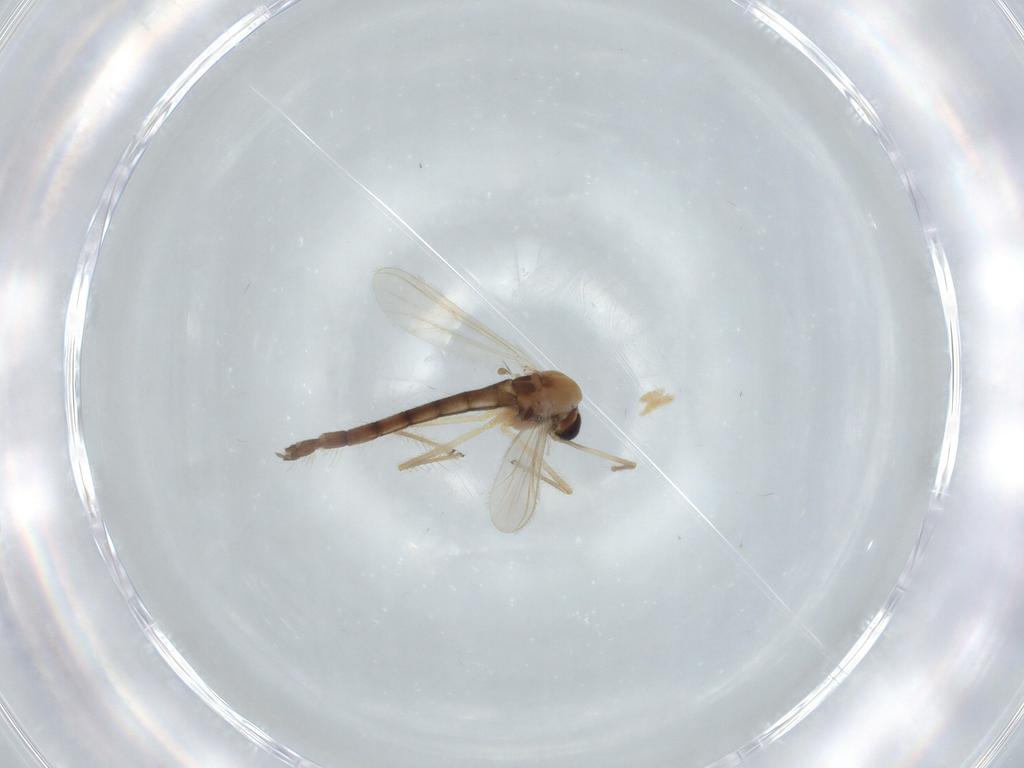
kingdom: Animalia
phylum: Arthropoda
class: Insecta
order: Diptera
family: Chironomidae
